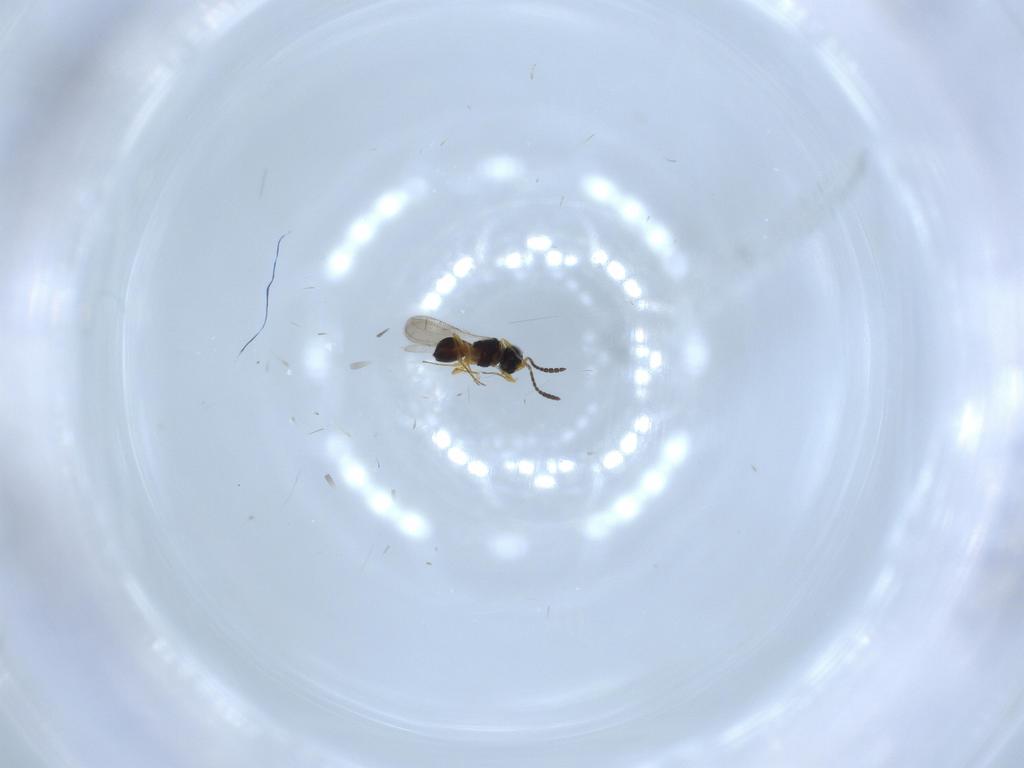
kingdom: Animalia
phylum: Arthropoda
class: Insecta
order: Hymenoptera
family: Scelionidae
